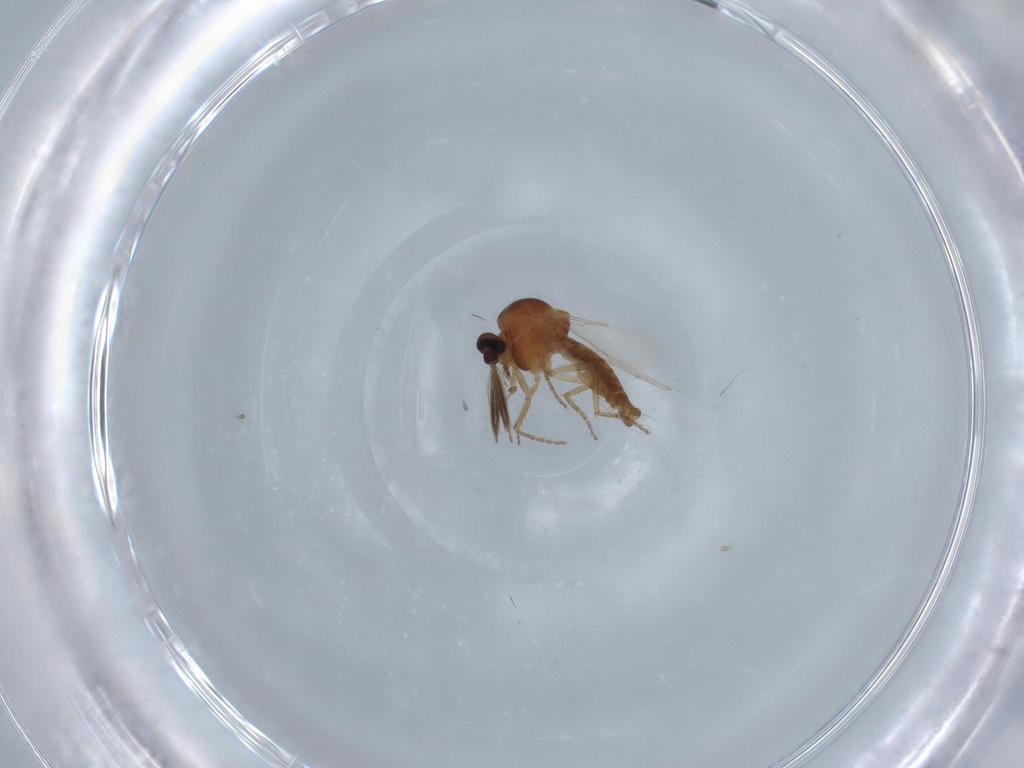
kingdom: Animalia
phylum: Arthropoda
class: Insecta
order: Diptera
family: Ceratopogonidae
